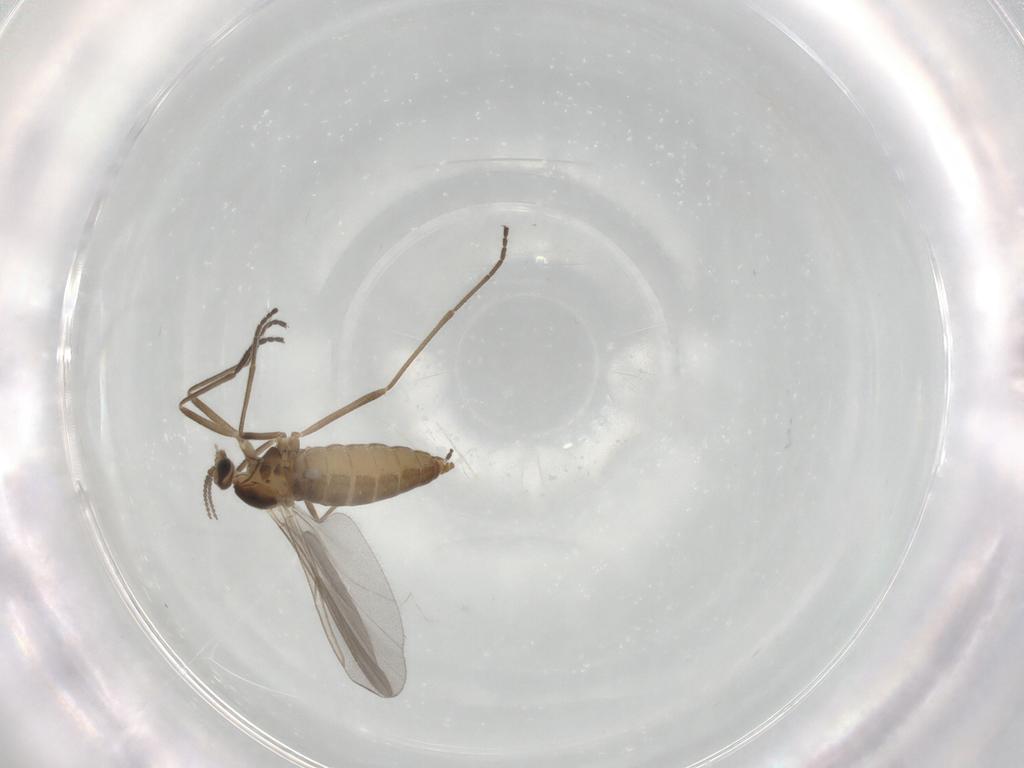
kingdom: Animalia
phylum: Arthropoda
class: Insecta
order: Diptera
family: Cecidomyiidae
